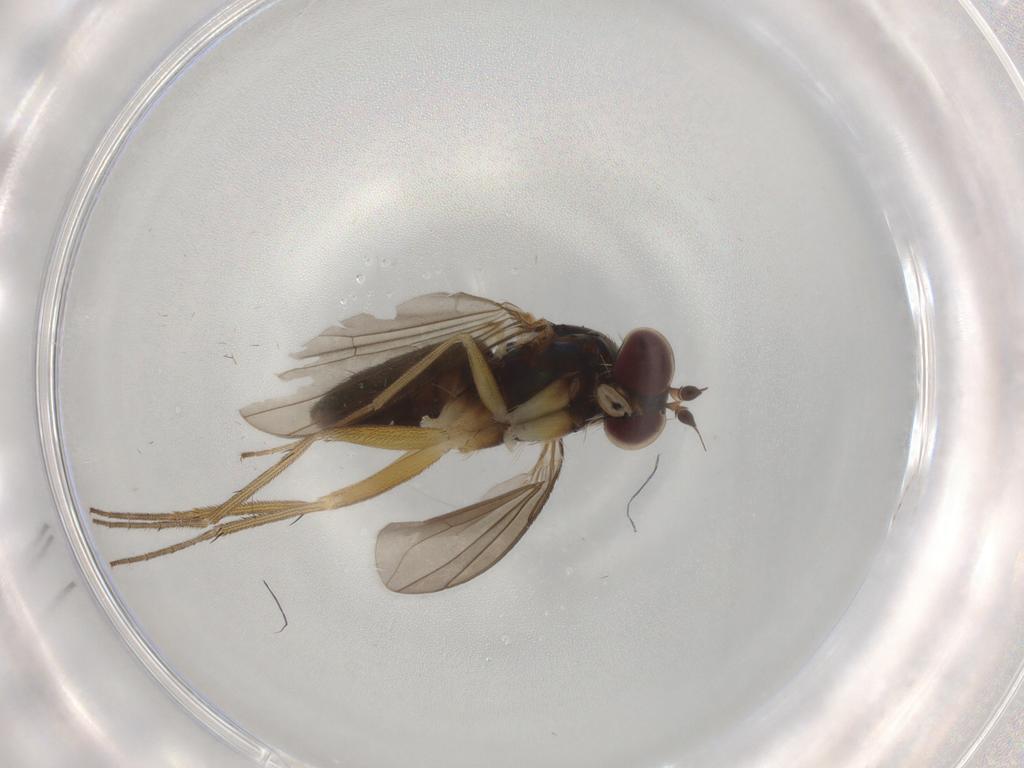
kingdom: Animalia
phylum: Arthropoda
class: Insecta
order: Diptera
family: Dolichopodidae
